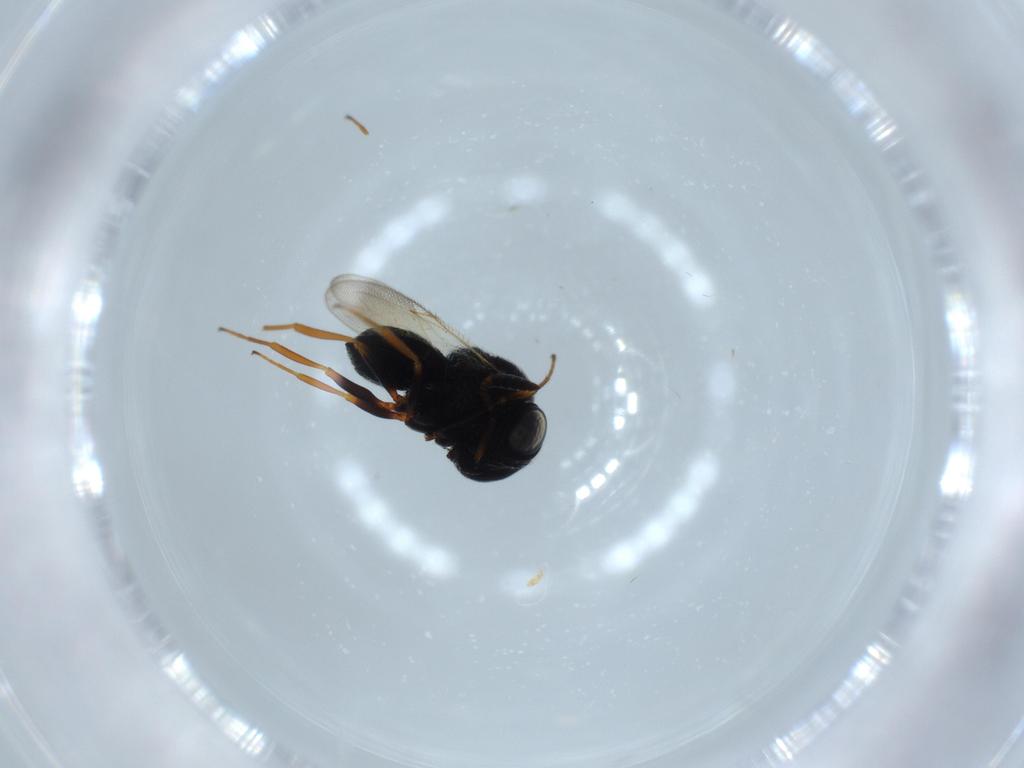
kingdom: Animalia
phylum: Arthropoda
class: Insecta
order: Hymenoptera
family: Scelionidae
